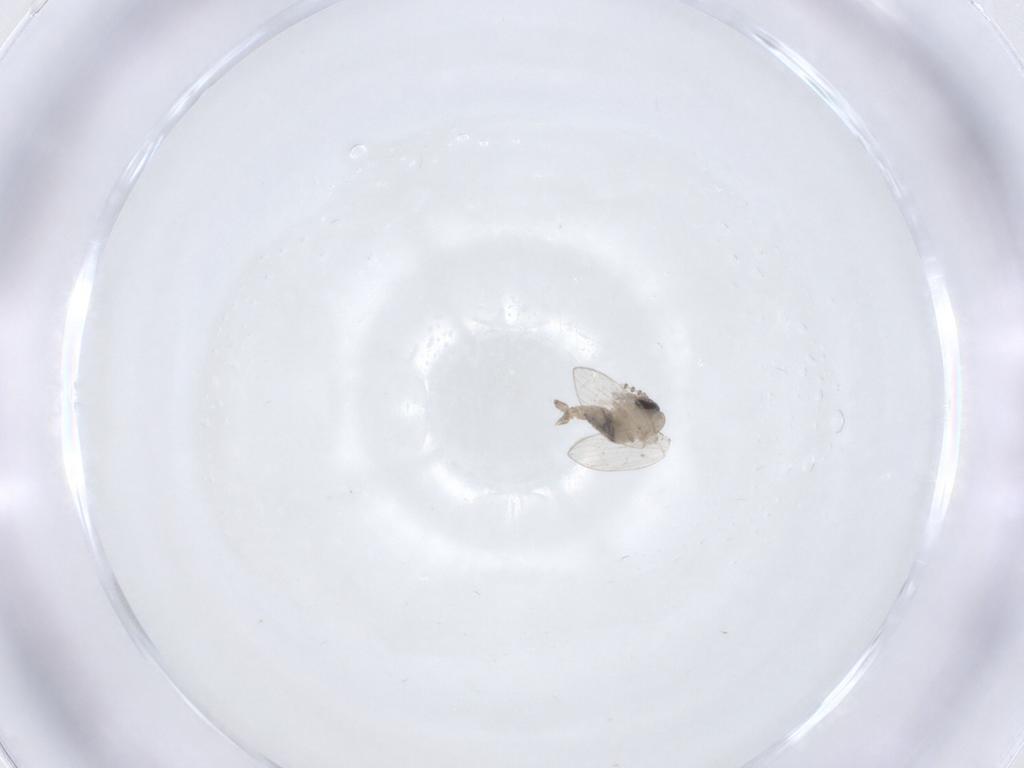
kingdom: Animalia
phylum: Arthropoda
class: Insecta
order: Diptera
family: Psychodidae
